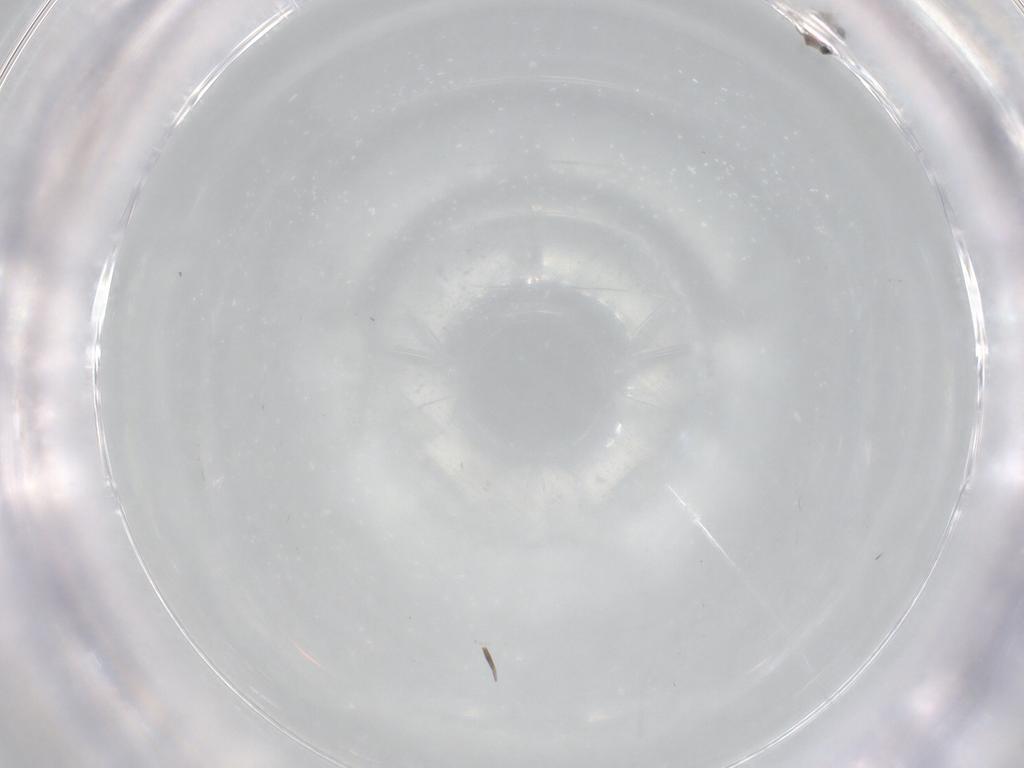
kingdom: Animalia
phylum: Arthropoda
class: Insecta
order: Diptera
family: Cecidomyiidae
